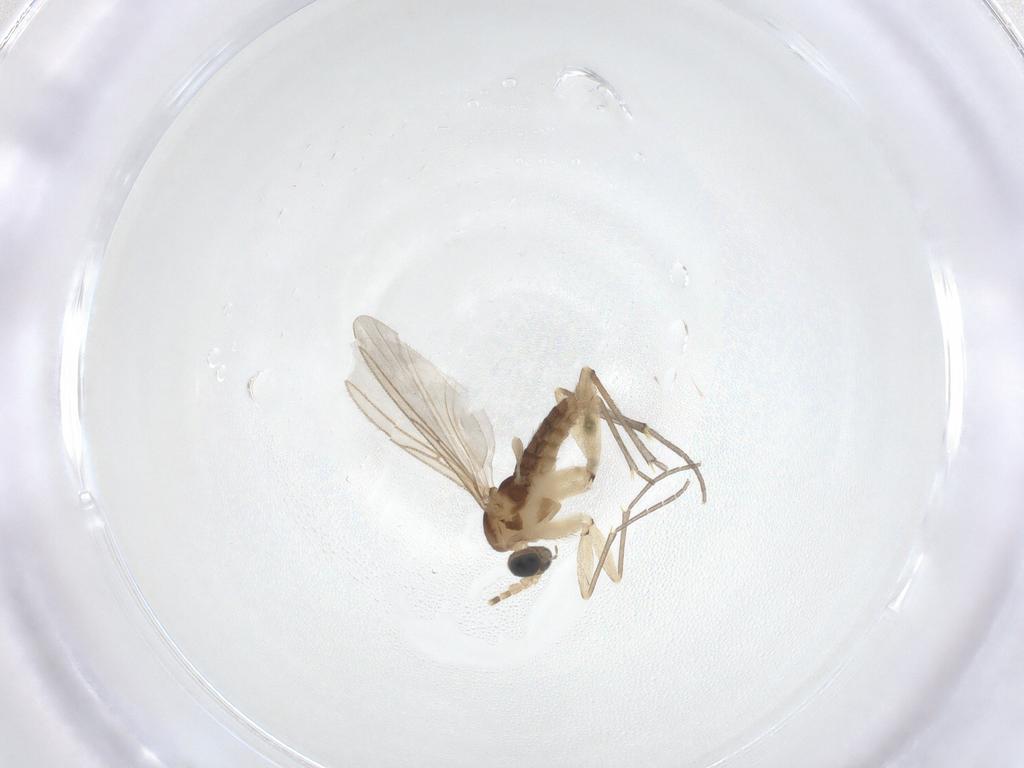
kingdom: Animalia
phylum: Arthropoda
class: Insecta
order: Diptera
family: Sciaridae
